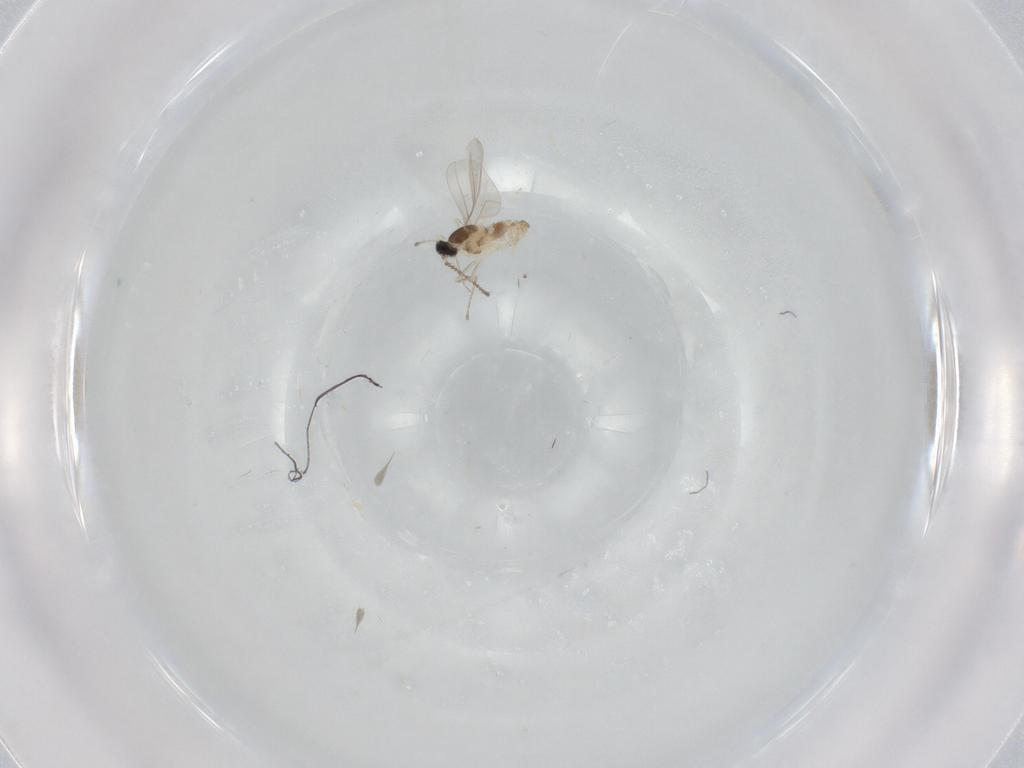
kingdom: Animalia
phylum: Arthropoda
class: Insecta
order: Diptera
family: Cecidomyiidae
